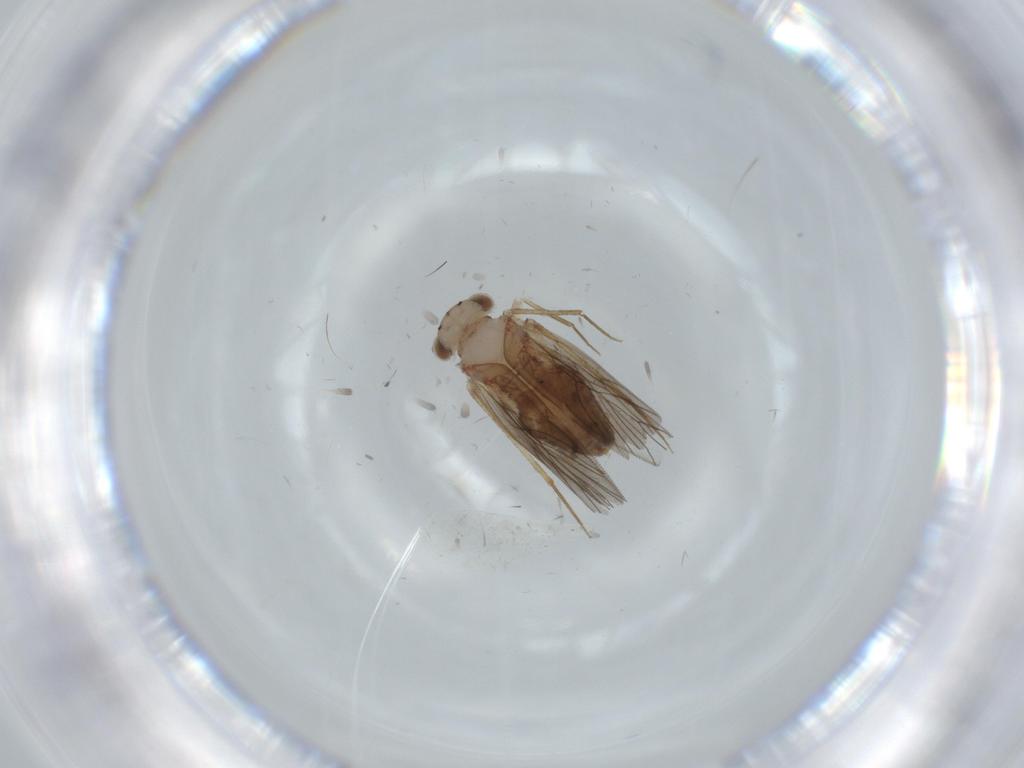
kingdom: Animalia
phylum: Arthropoda
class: Insecta
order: Psocodea
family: Lepidopsocidae
